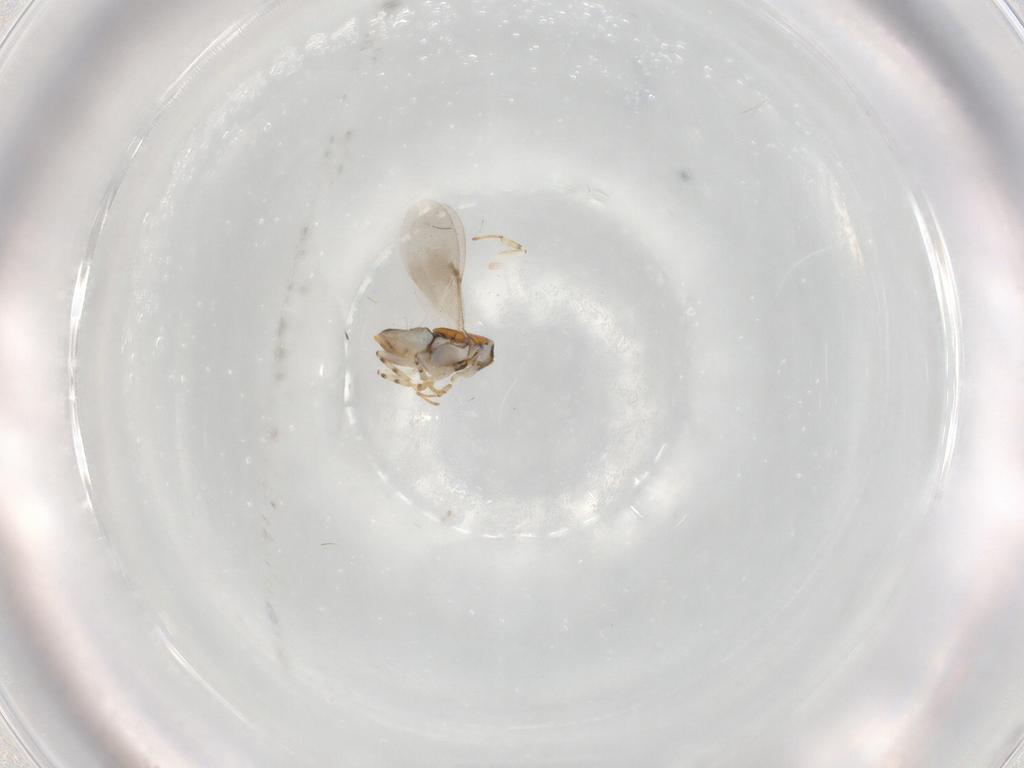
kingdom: Animalia
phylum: Arthropoda
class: Insecta
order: Hymenoptera
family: Encyrtidae
